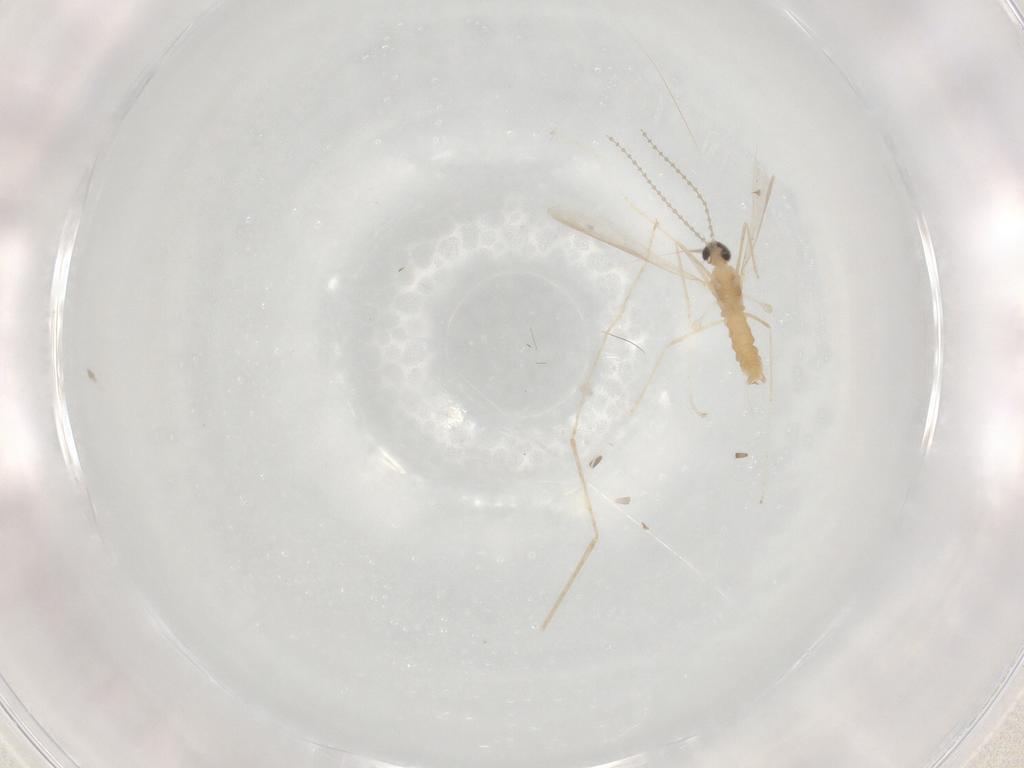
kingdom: Animalia
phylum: Arthropoda
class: Insecta
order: Diptera
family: Cecidomyiidae
